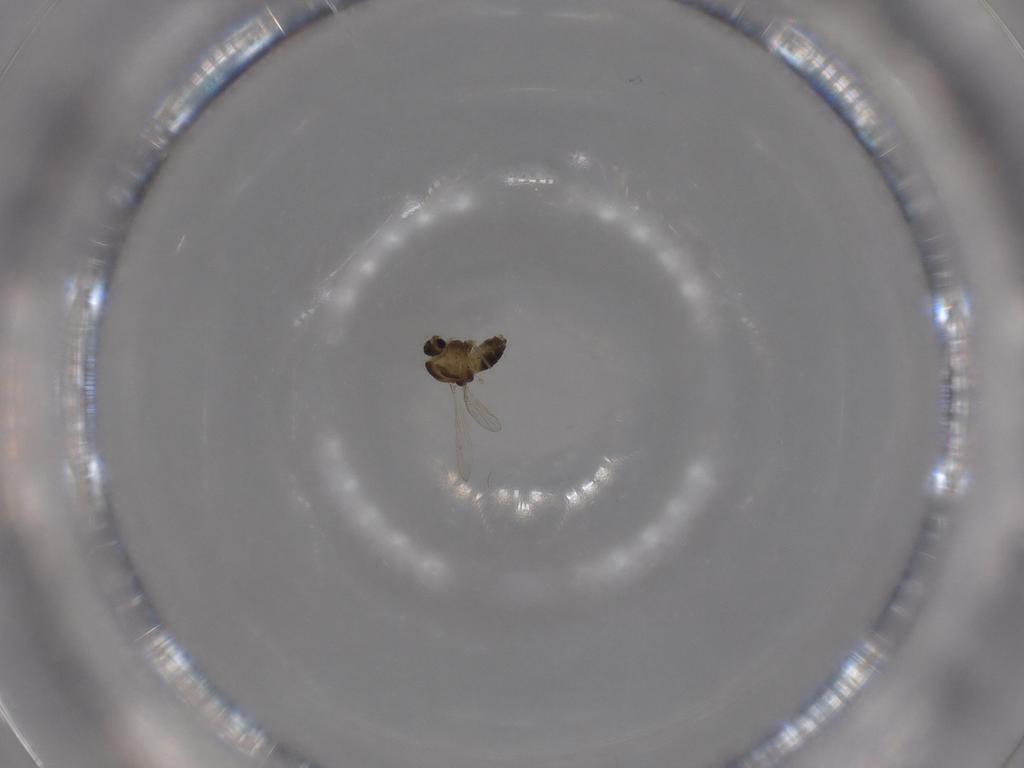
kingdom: Animalia
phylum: Arthropoda
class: Insecta
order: Diptera
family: Chironomidae
